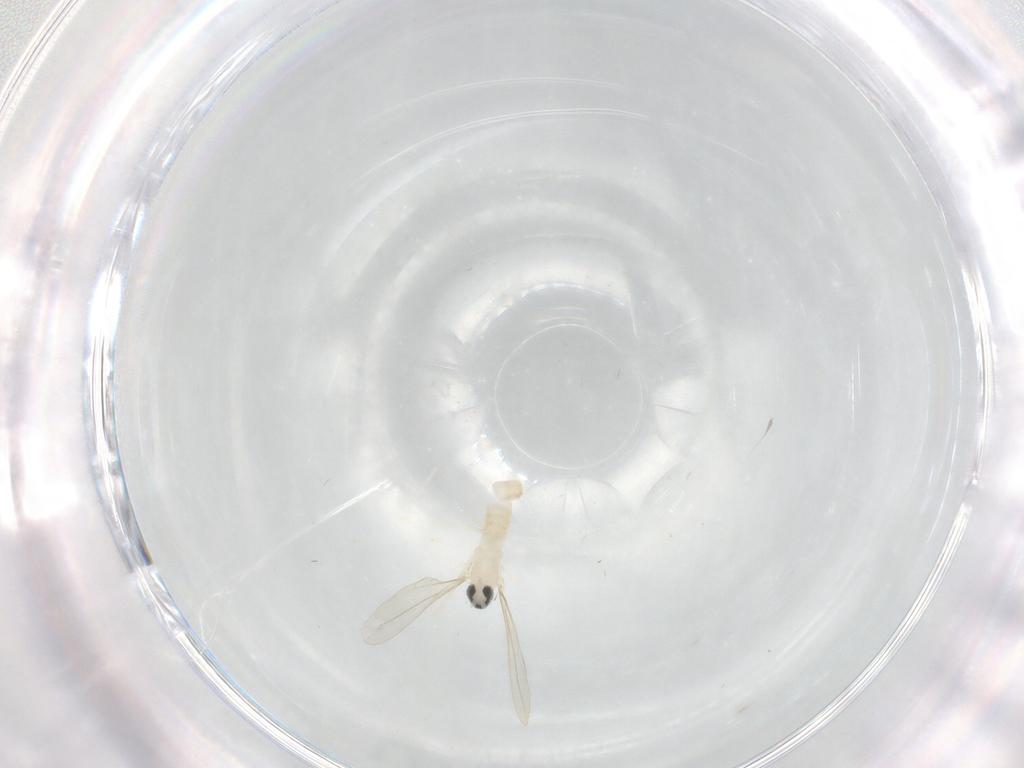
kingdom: Animalia
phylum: Arthropoda
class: Insecta
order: Diptera
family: Cecidomyiidae
